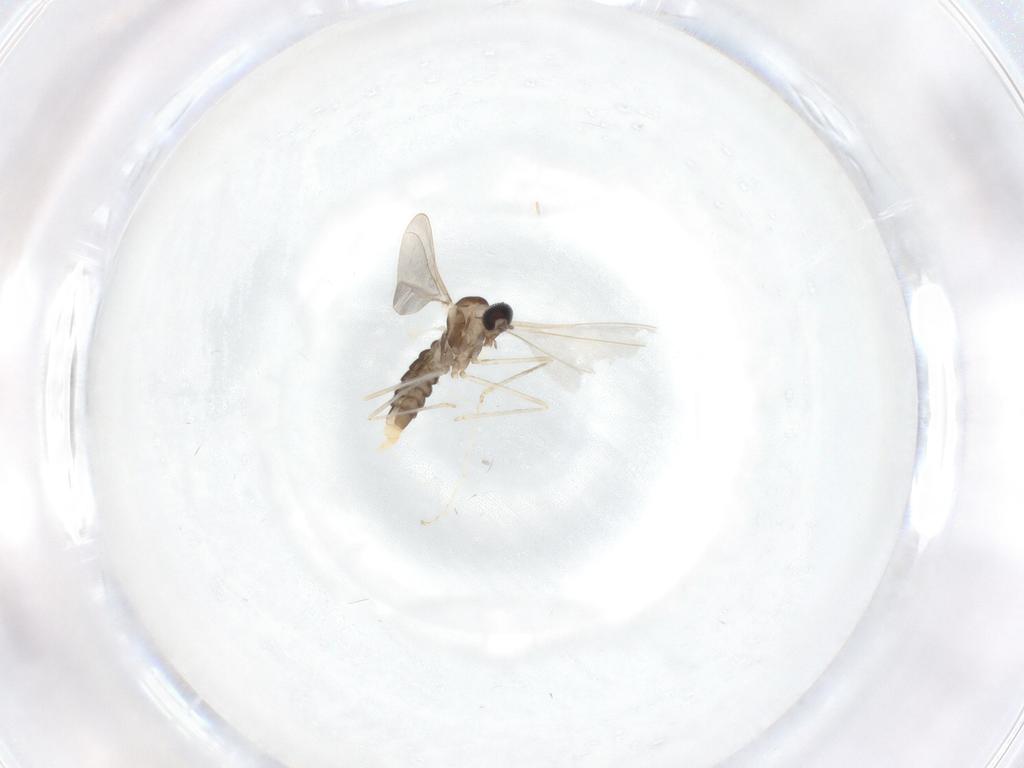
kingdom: Animalia
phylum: Arthropoda
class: Insecta
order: Diptera
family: Cecidomyiidae
